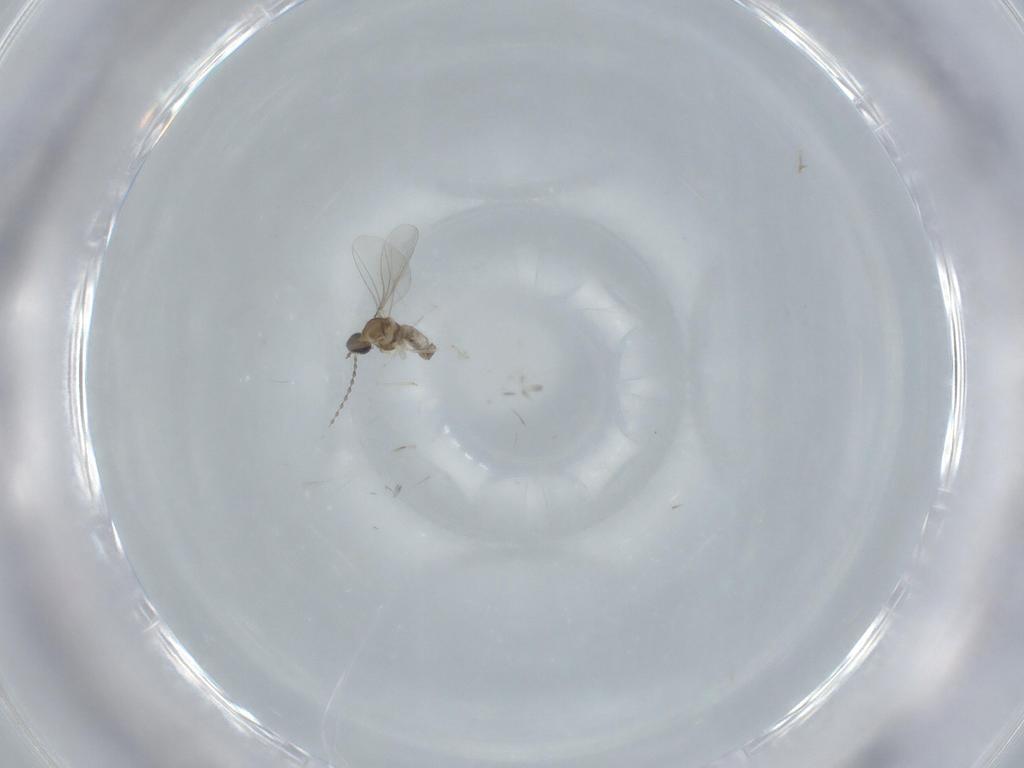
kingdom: Animalia
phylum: Arthropoda
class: Insecta
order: Diptera
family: Cecidomyiidae
